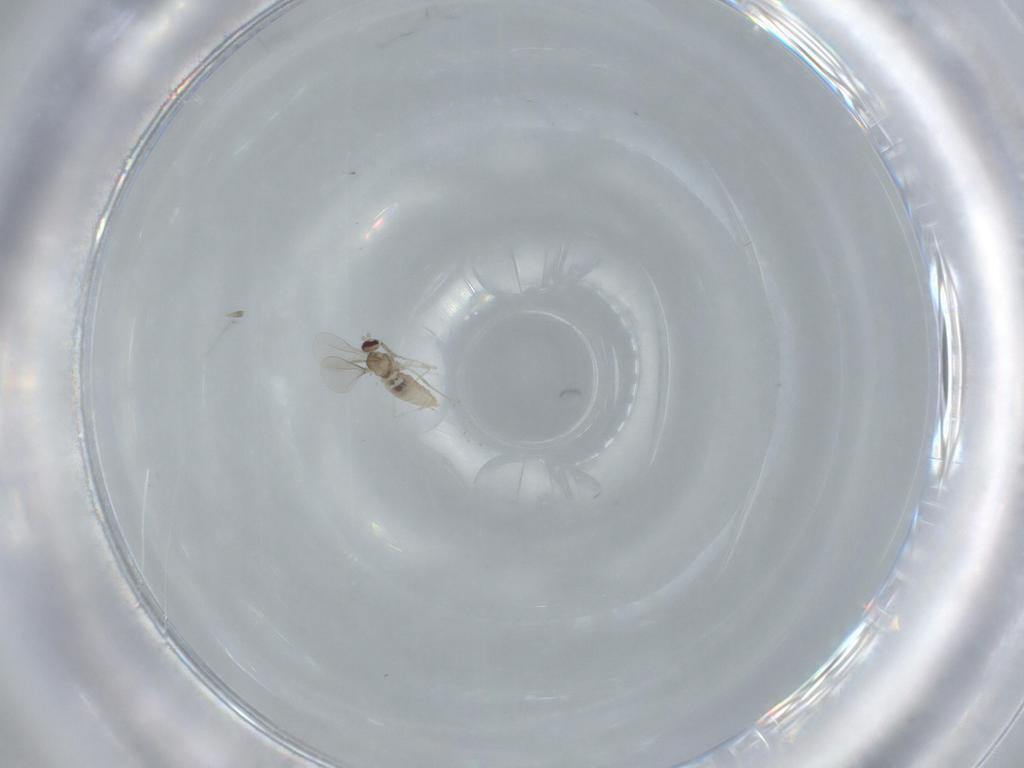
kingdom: Animalia
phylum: Arthropoda
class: Insecta
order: Diptera
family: Cecidomyiidae
